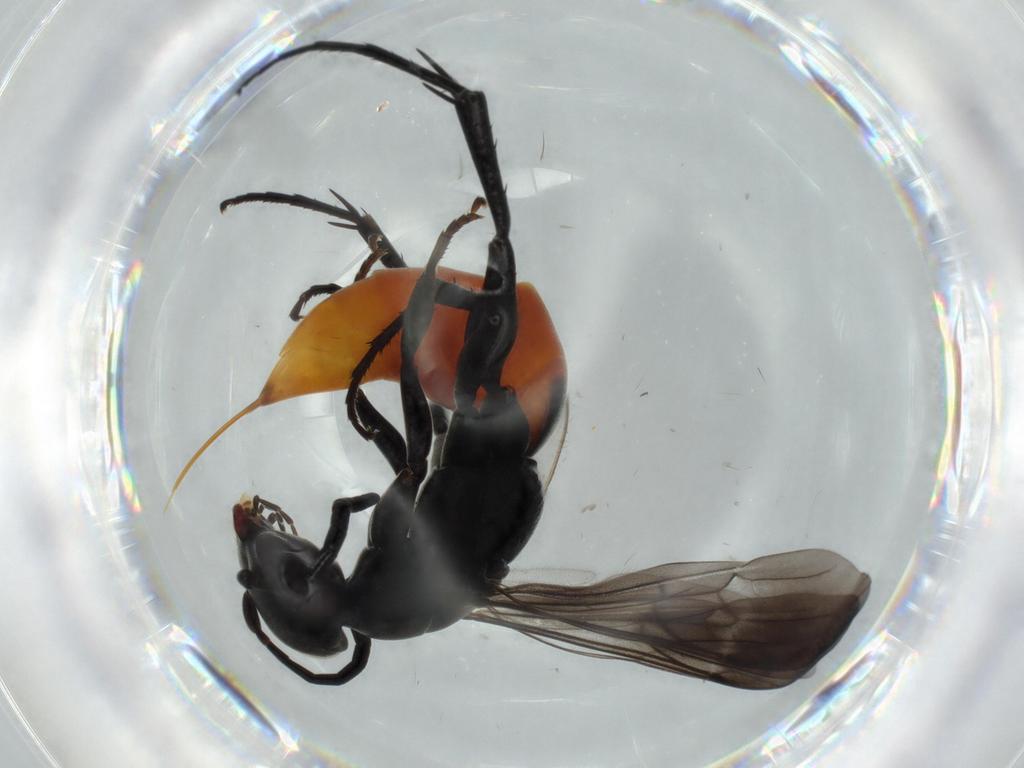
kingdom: Animalia
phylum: Arthropoda
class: Insecta
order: Hymenoptera
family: Pompilidae
